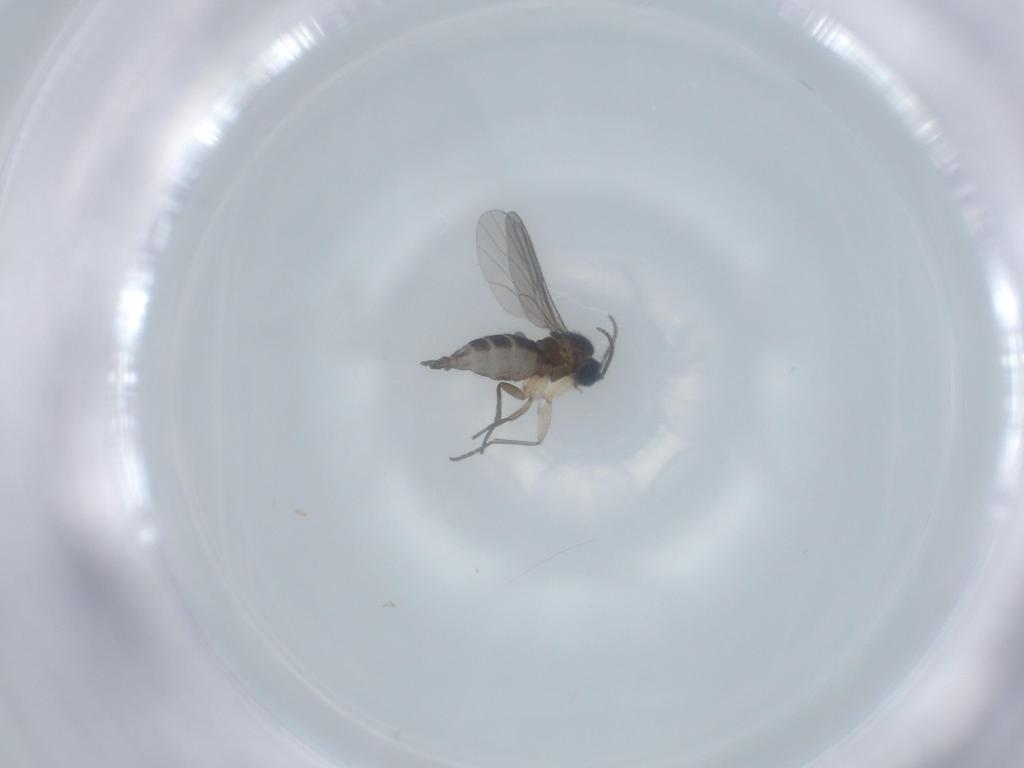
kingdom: Animalia
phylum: Arthropoda
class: Insecta
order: Diptera
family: Sciaridae
